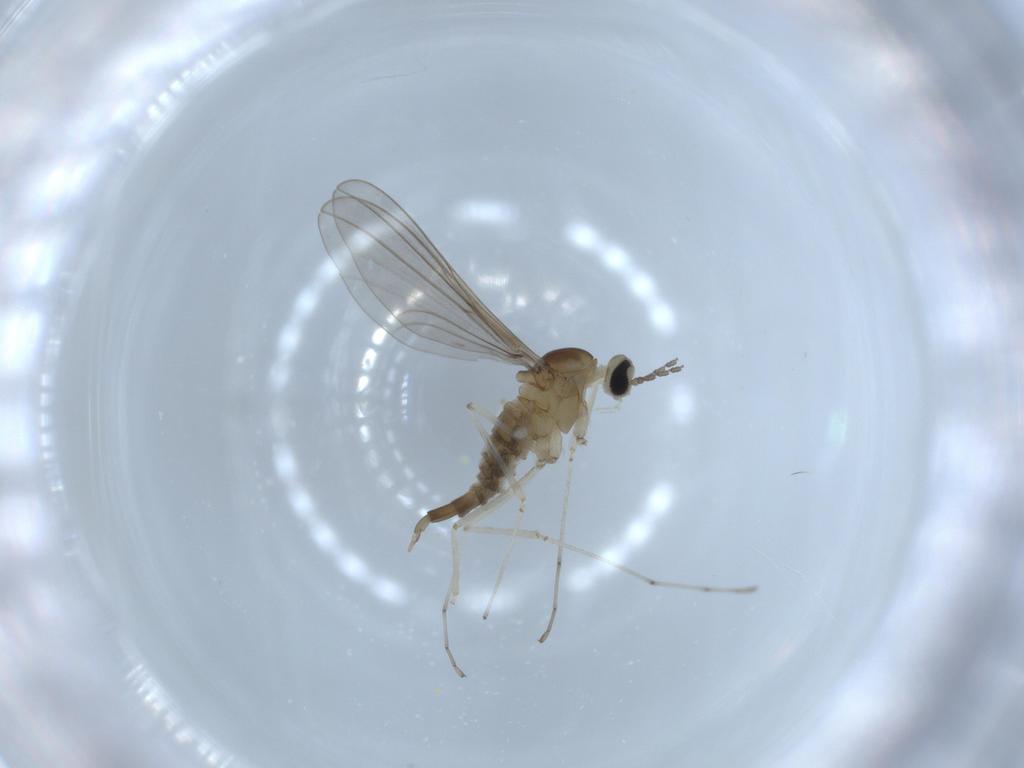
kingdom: Animalia
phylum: Arthropoda
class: Insecta
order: Diptera
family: Cecidomyiidae
